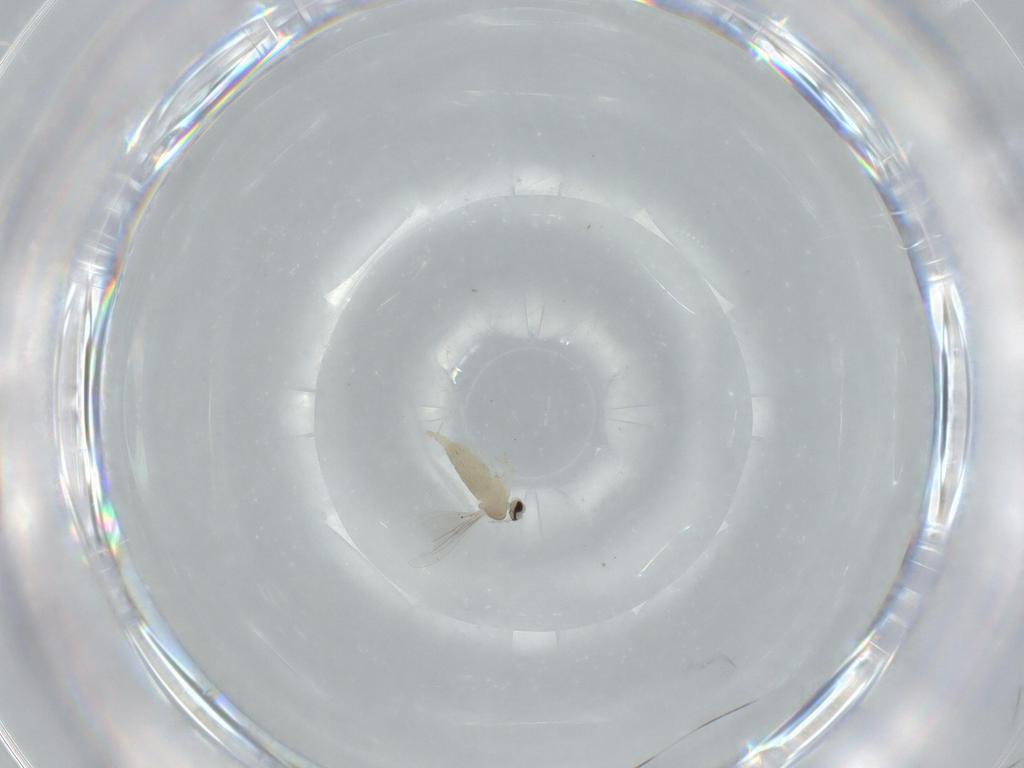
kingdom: Animalia
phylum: Arthropoda
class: Insecta
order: Diptera
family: Cecidomyiidae
